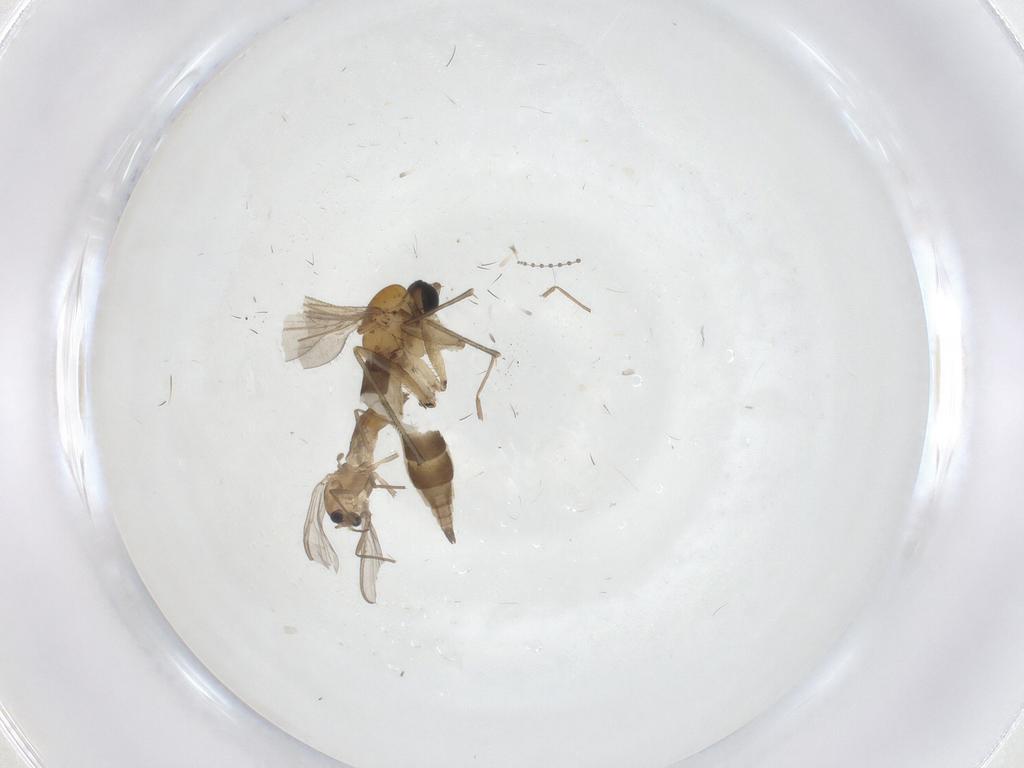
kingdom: Animalia
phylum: Arthropoda
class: Insecta
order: Diptera
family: Sciaridae
